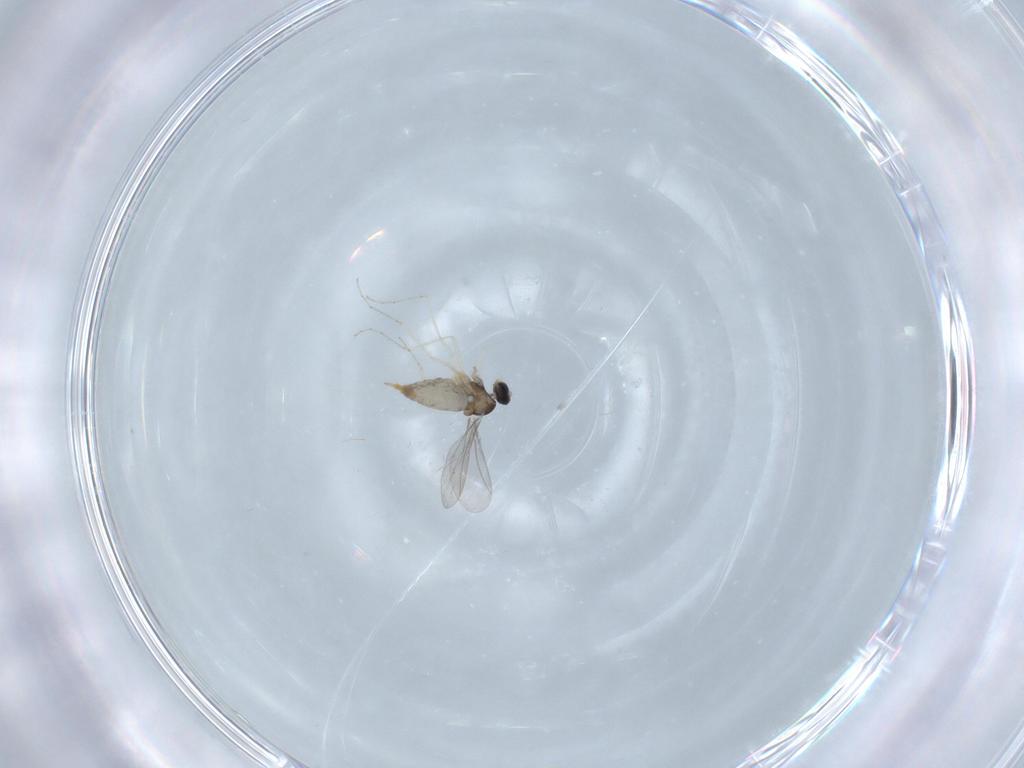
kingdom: Animalia
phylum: Arthropoda
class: Insecta
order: Diptera
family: Cecidomyiidae
